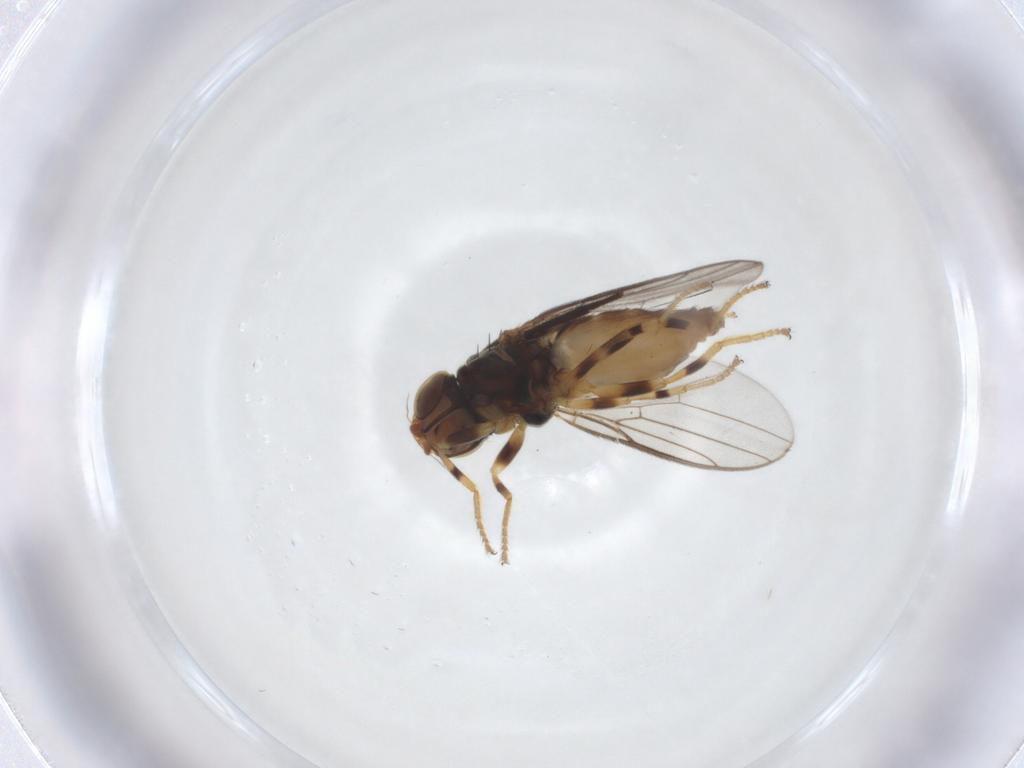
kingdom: Animalia
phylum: Arthropoda
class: Insecta
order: Diptera
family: Chloropidae
